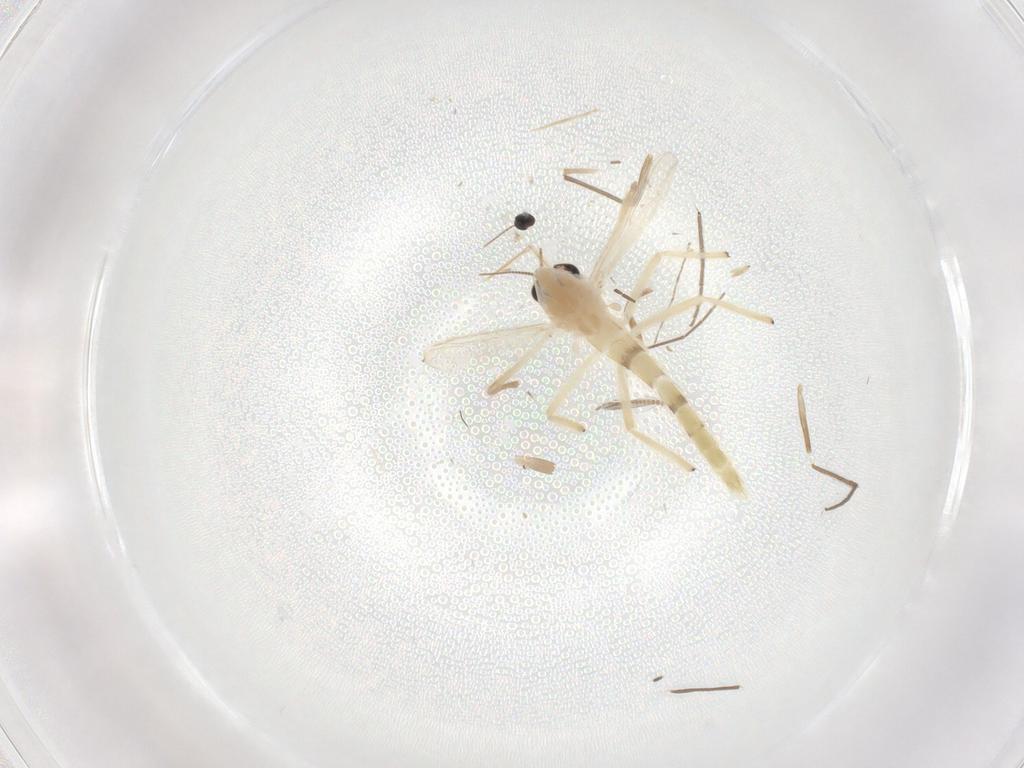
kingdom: Animalia
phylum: Arthropoda
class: Insecta
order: Diptera
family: Chironomidae
